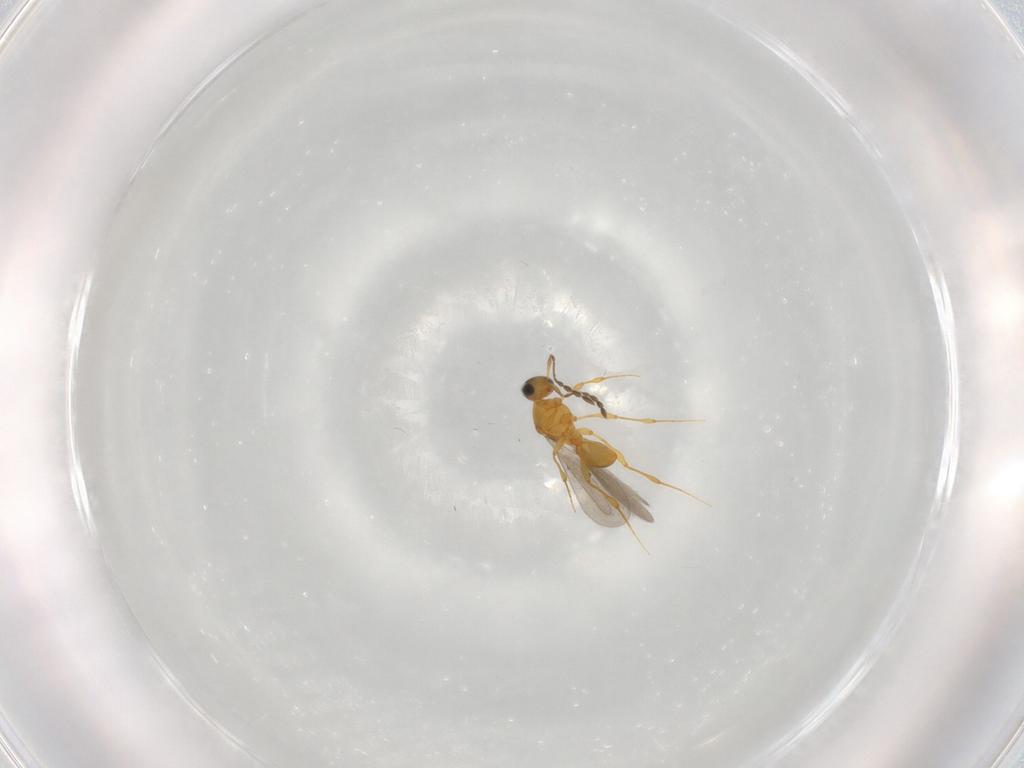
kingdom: Animalia
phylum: Arthropoda
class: Insecta
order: Hymenoptera
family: Platygastridae
